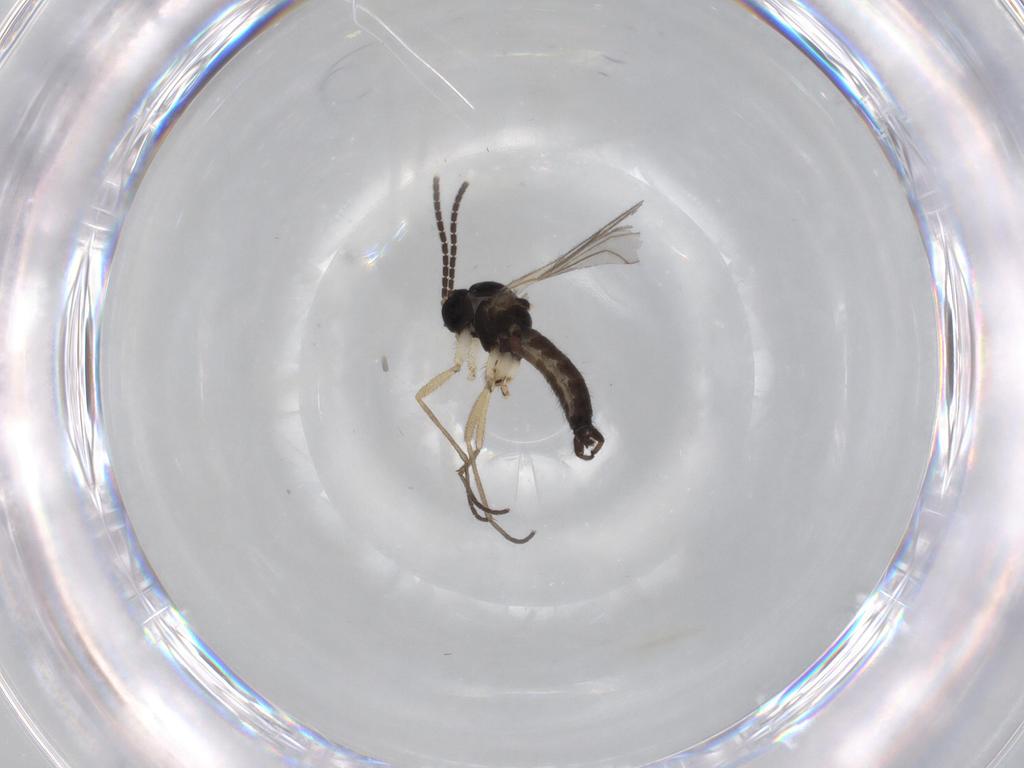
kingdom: Animalia
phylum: Arthropoda
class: Insecta
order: Diptera
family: Sciaridae
